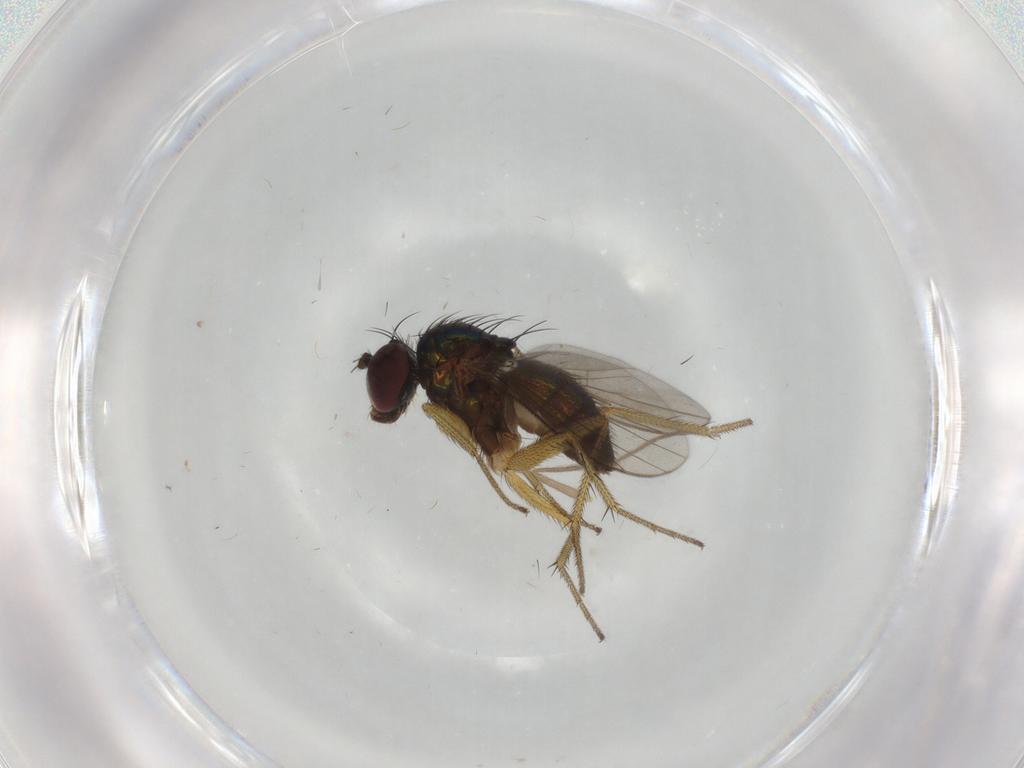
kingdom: Animalia
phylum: Arthropoda
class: Insecta
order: Diptera
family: Chironomidae
